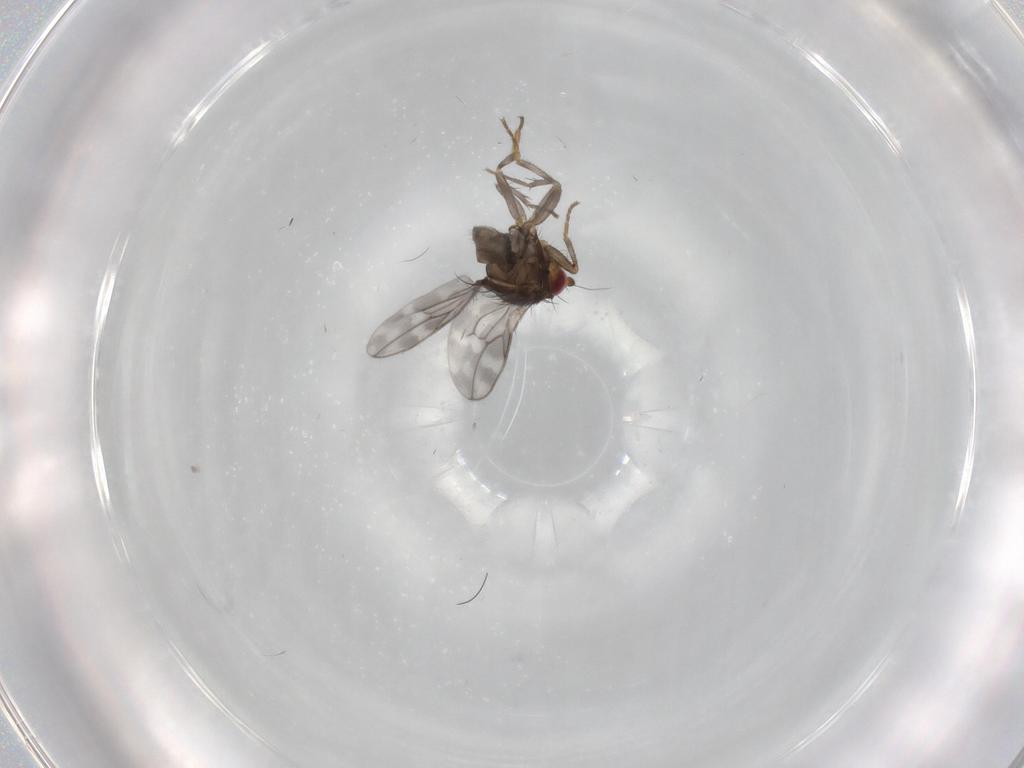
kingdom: Animalia
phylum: Arthropoda
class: Insecta
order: Diptera
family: Sphaeroceridae
